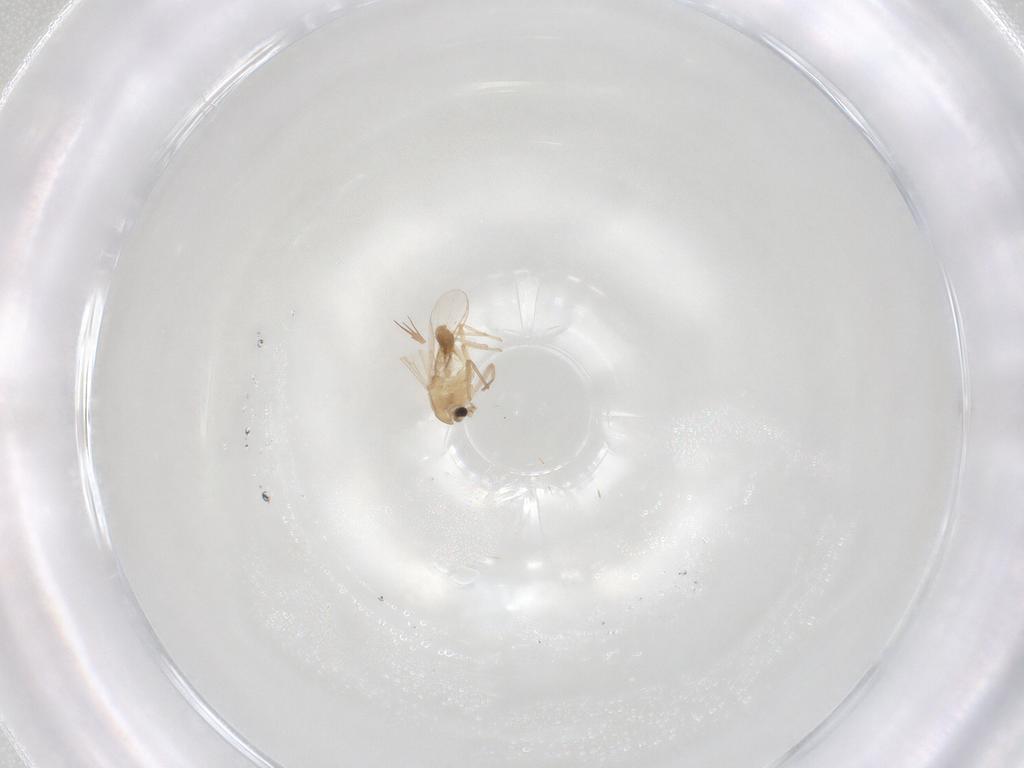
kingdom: Animalia
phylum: Arthropoda
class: Insecta
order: Diptera
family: Chironomidae
